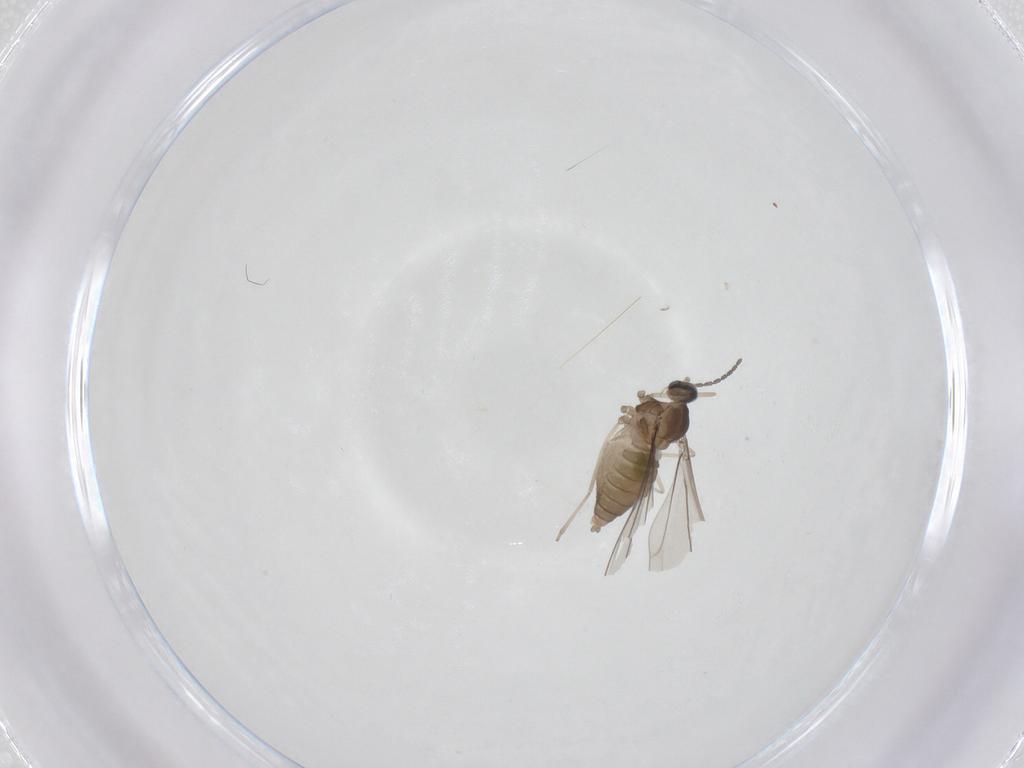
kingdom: Animalia
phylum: Arthropoda
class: Insecta
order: Diptera
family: Cecidomyiidae
